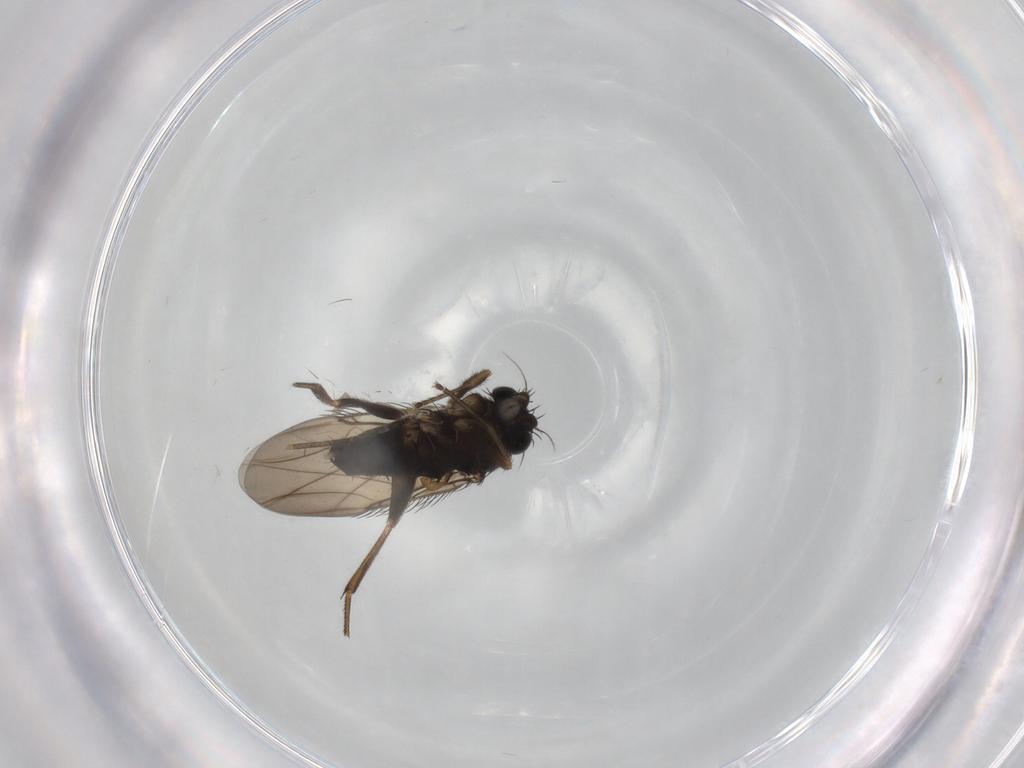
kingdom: Animalia
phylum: Arthropoda
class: Insecta
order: Diptera
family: Phoridae
